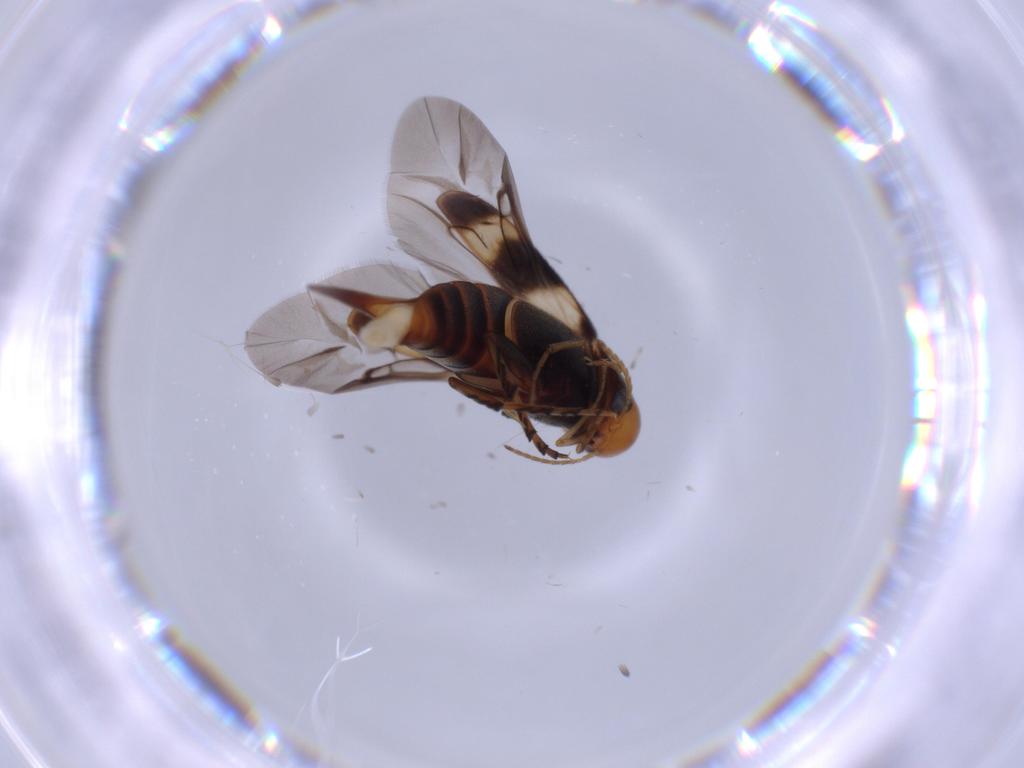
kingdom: Animalia
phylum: Arthropoda
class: Insecta
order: Coleoptera
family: Mordellidae
